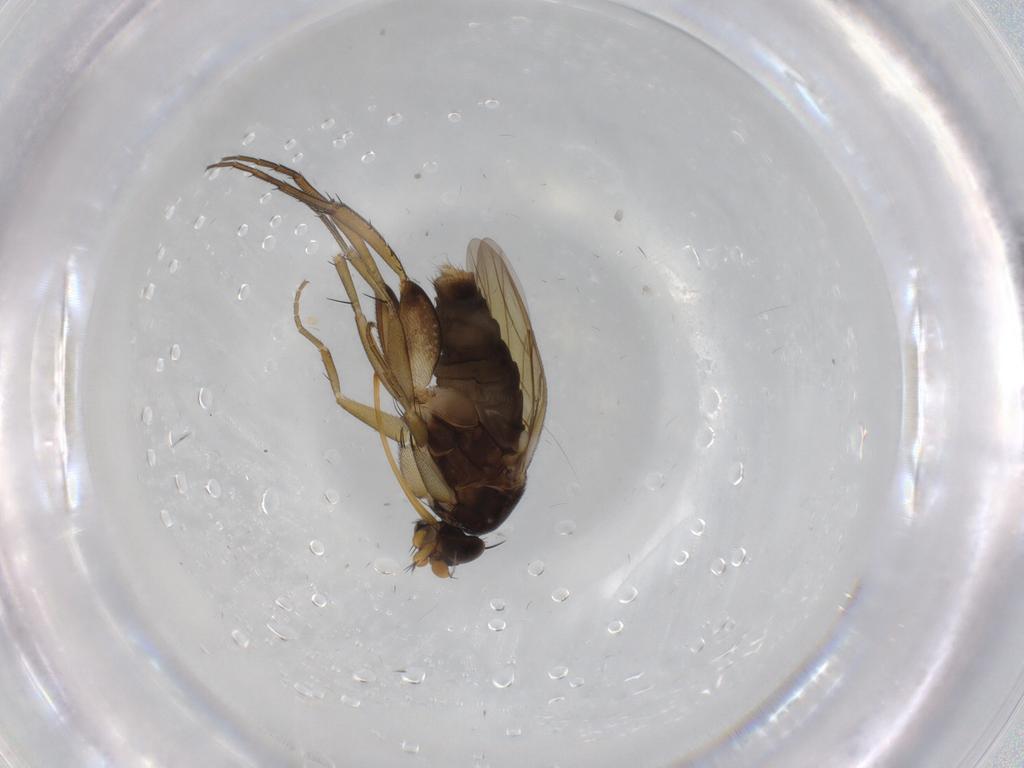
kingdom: Animalia
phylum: Arthropoda
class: Insecta
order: Diptera
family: Phoridae
